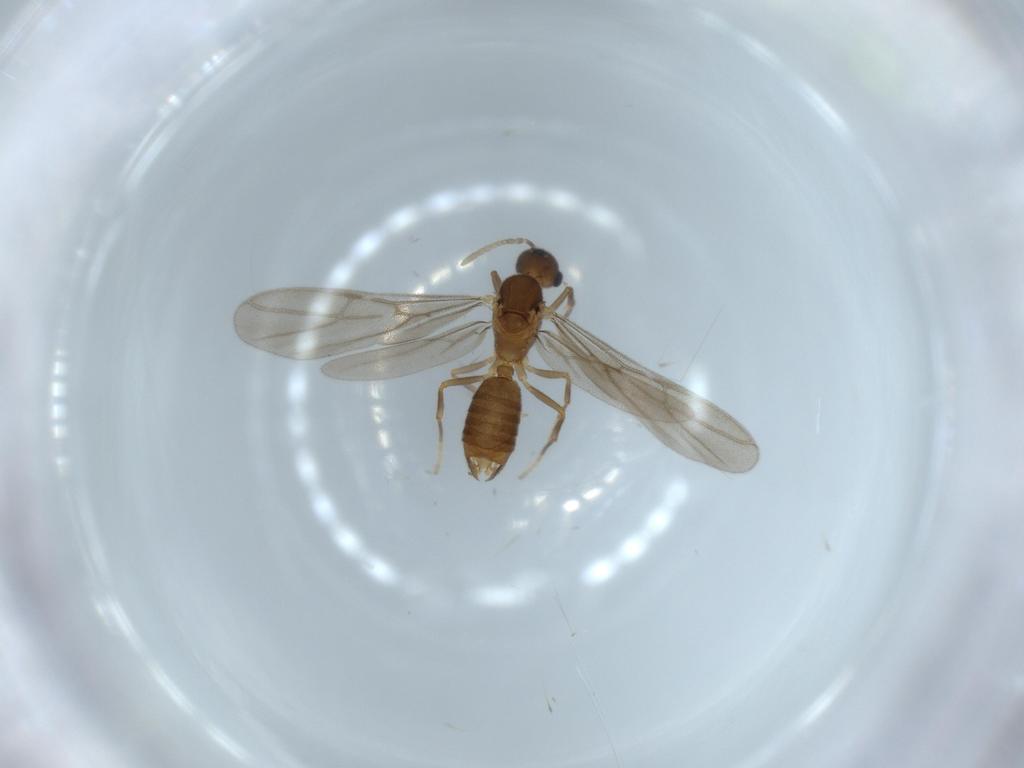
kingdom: Animalia
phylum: Arthropoda
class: Insecta
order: Hymenoptera
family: Formicidae
